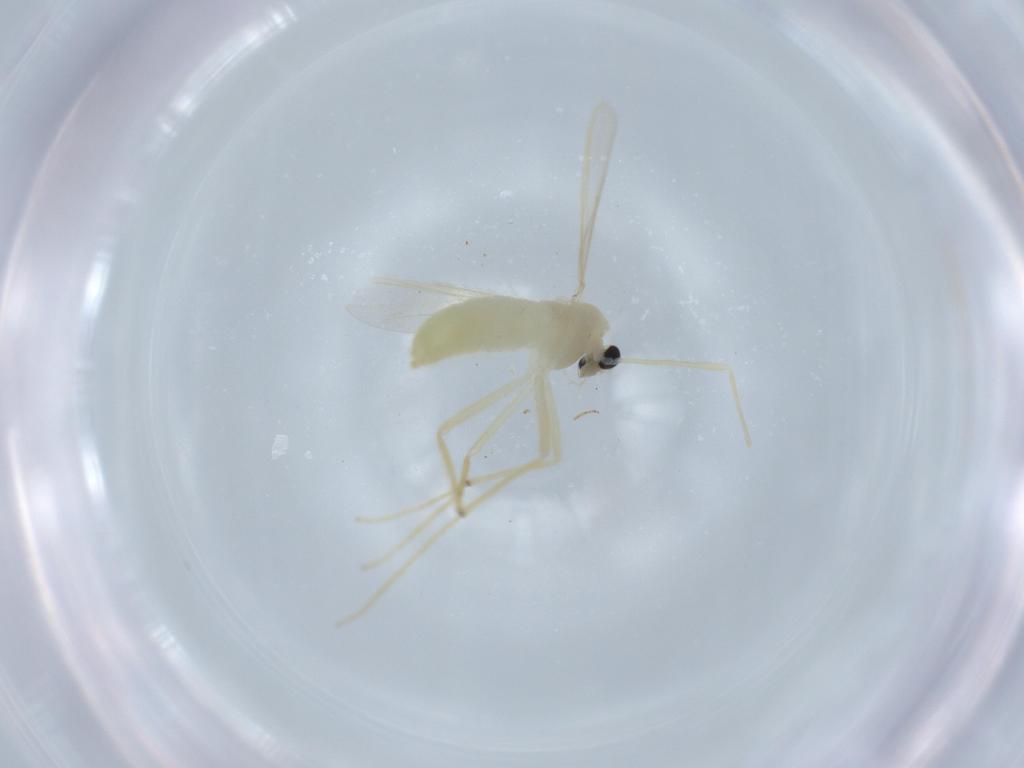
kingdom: Animalia
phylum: Arthropoda
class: Insecta
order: Diptera
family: Chironomidae
